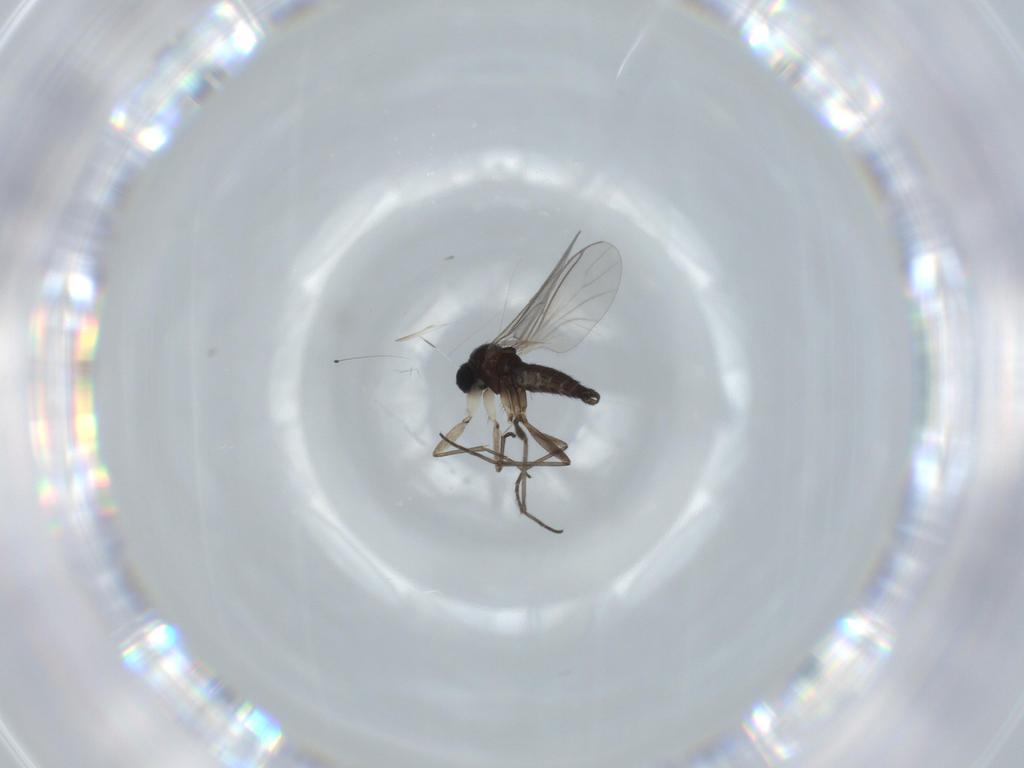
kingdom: Animalia
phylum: Arthropoda
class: Insecta
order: Diptera
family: Sciaridae
